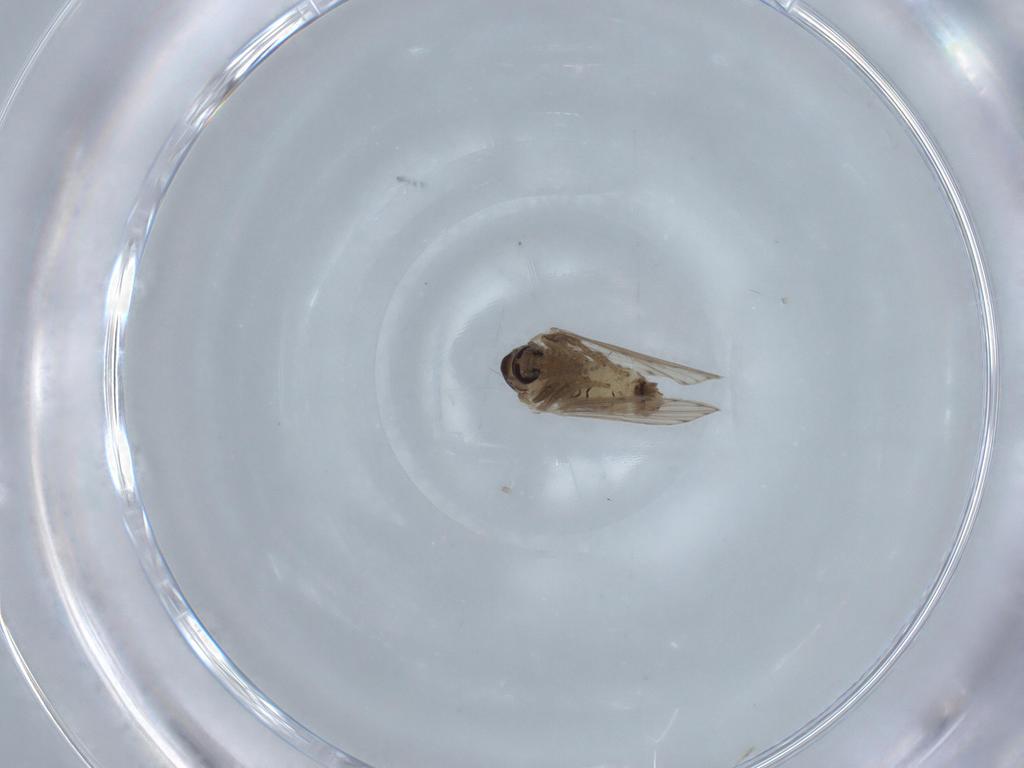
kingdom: Animalia
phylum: Arthropoda
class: Insecta
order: Diptera
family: Psychodidae
